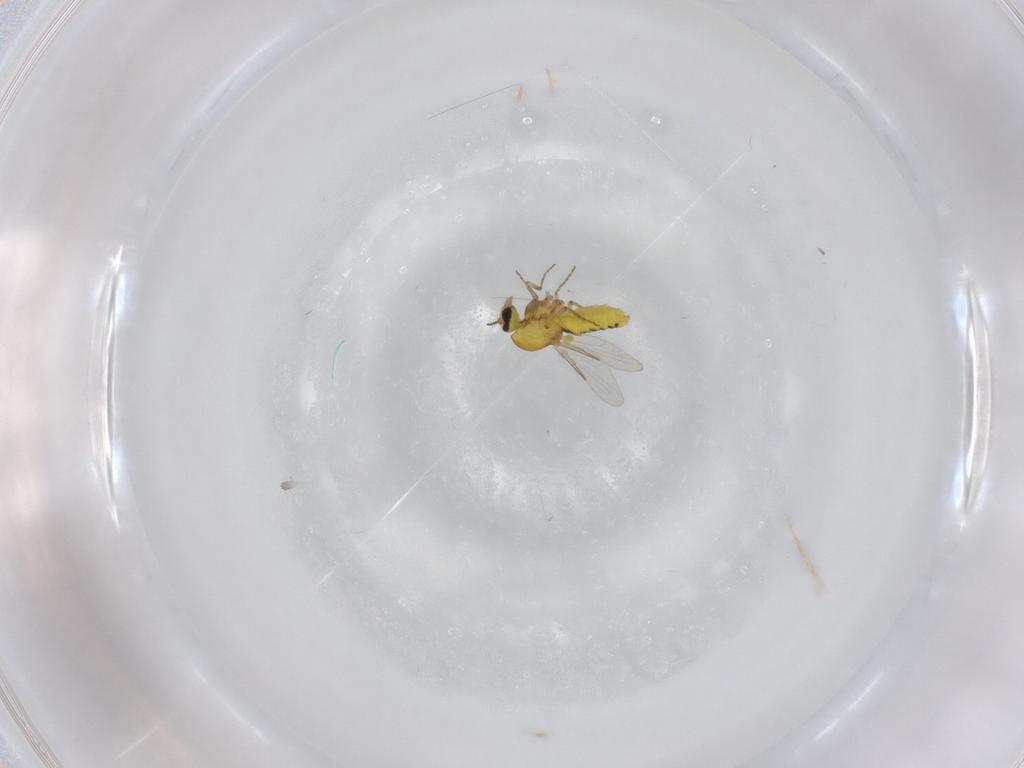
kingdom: Animalia
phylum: Arthropoda
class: Insecta
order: Diptera
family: Ceratopogonidae
